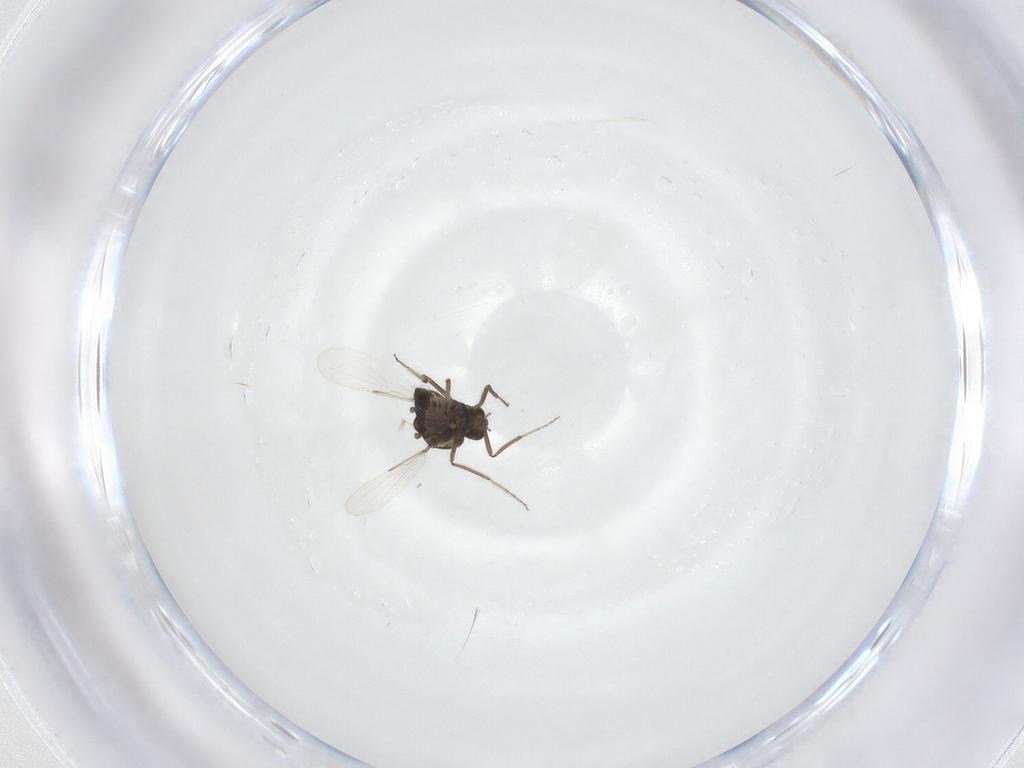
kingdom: Animalia
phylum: Arthropoda
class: Insecta
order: Diptera
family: Ceratopogonidae
